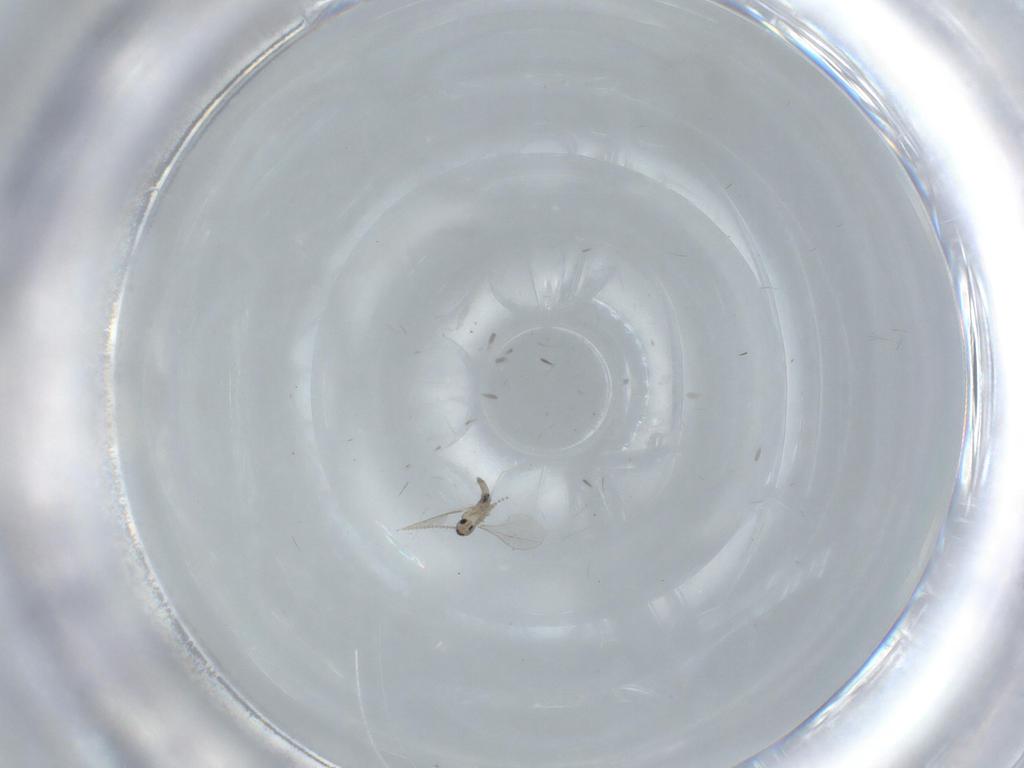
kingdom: Animalia
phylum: Arthropoda
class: Insecta
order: Diptera
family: Cecidomyiidae
